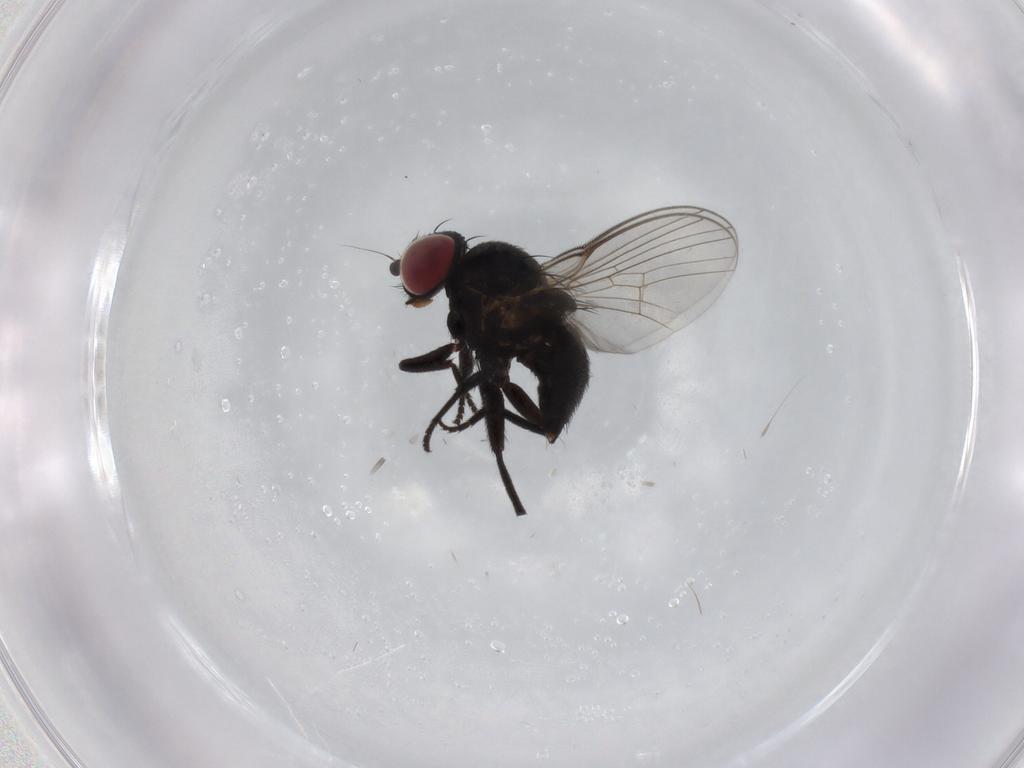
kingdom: Animalia
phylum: Arthropoda
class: Insecta
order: Diptera
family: Agromyzidae
